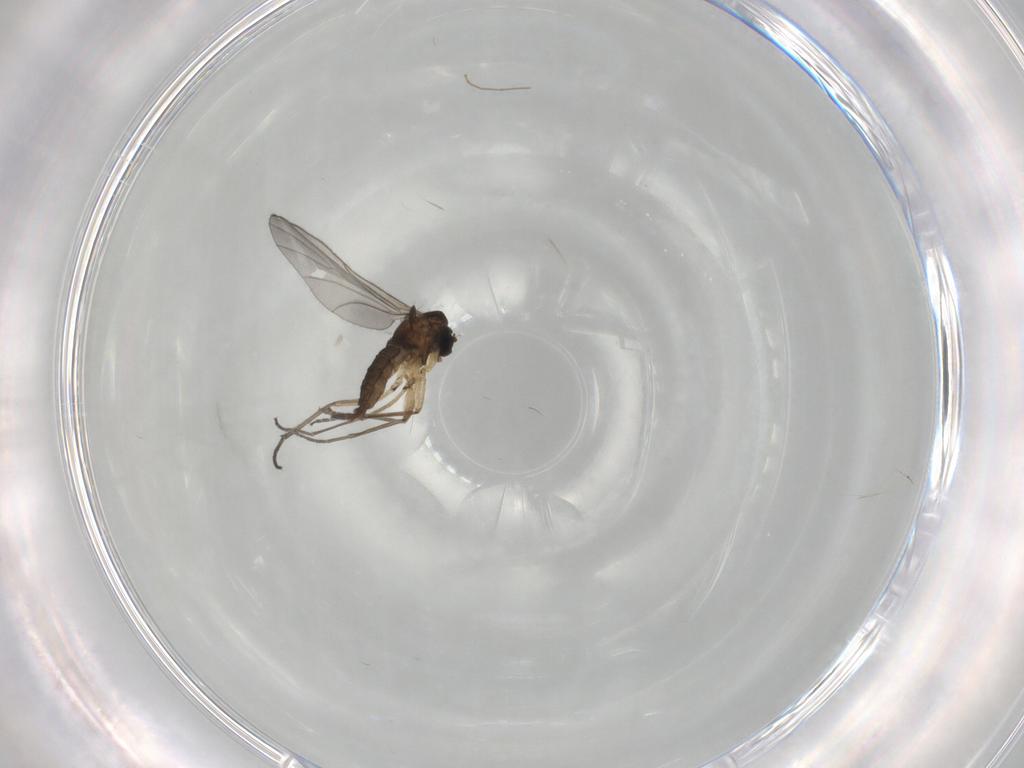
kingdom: Animalia
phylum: Arthropoda
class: Insecta
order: Diptera
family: Sciaridae
